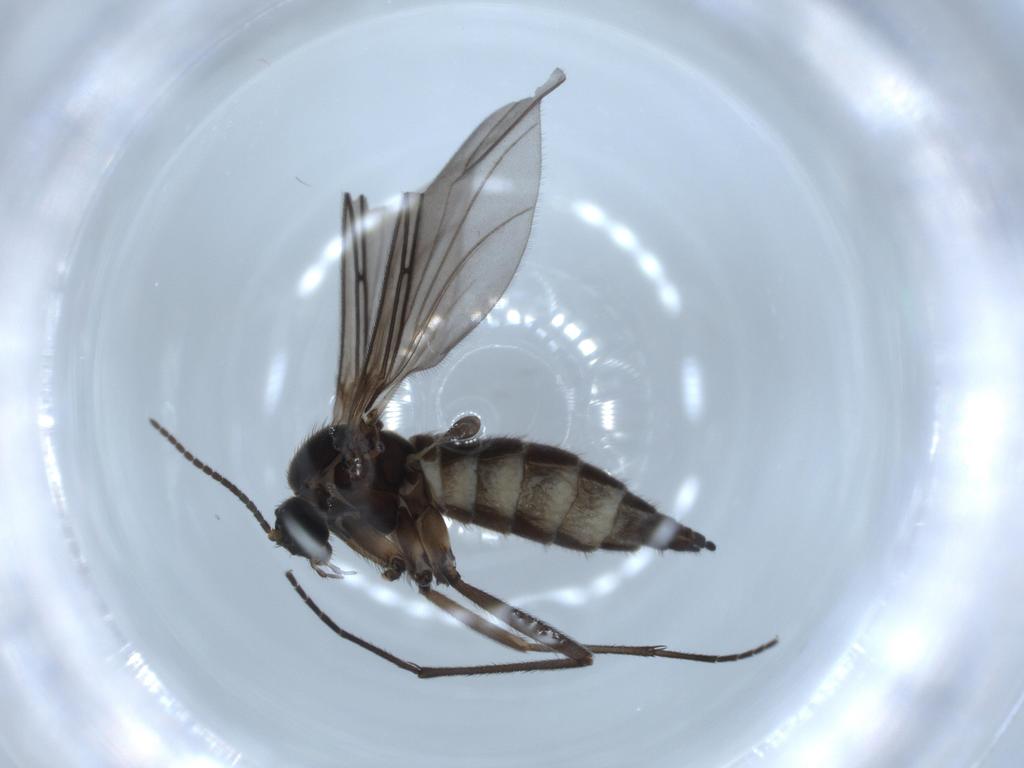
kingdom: Animalia
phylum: Arthropoda
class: Insecta
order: Diptera
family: Sciaridae
